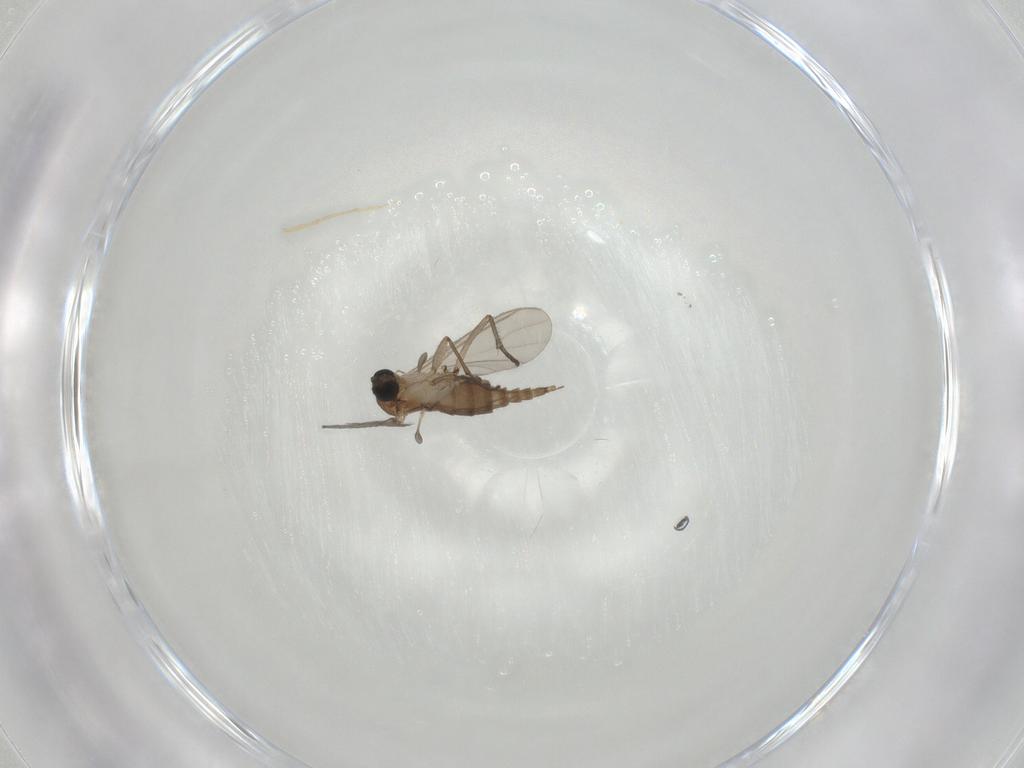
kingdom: Animalia
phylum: Arthropoda
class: Insecta
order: Diptera
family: Sciaridae
